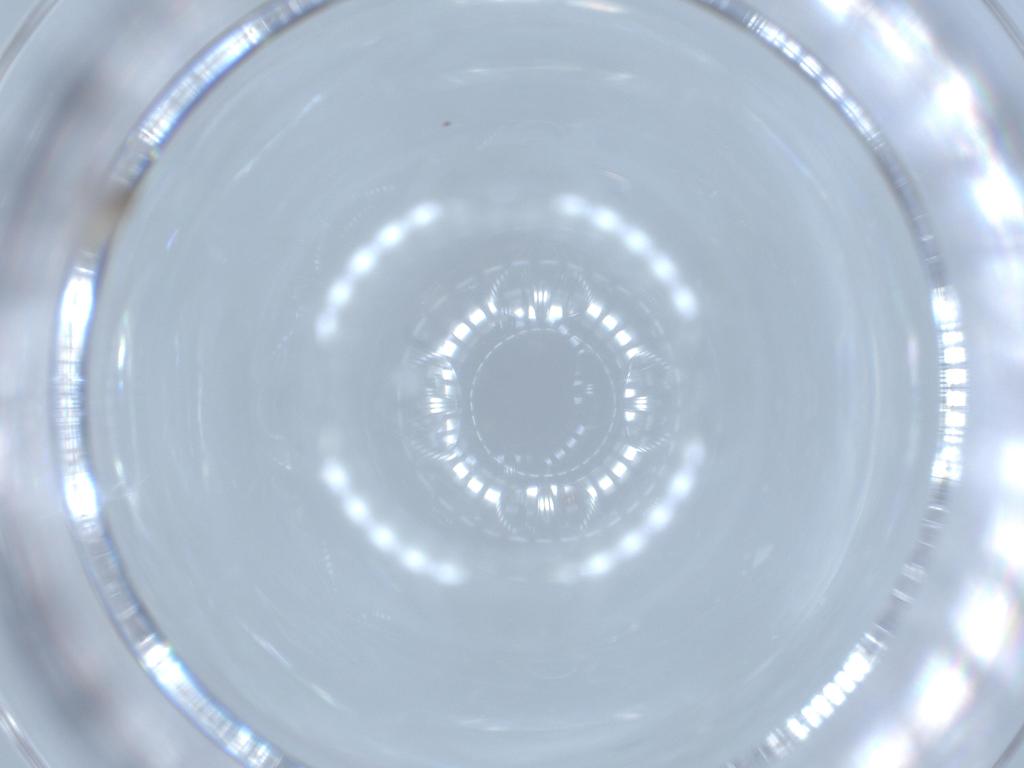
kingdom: Animalia
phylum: Arthropoda
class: Insecta
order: Diptera
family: Cecidomyiidae
